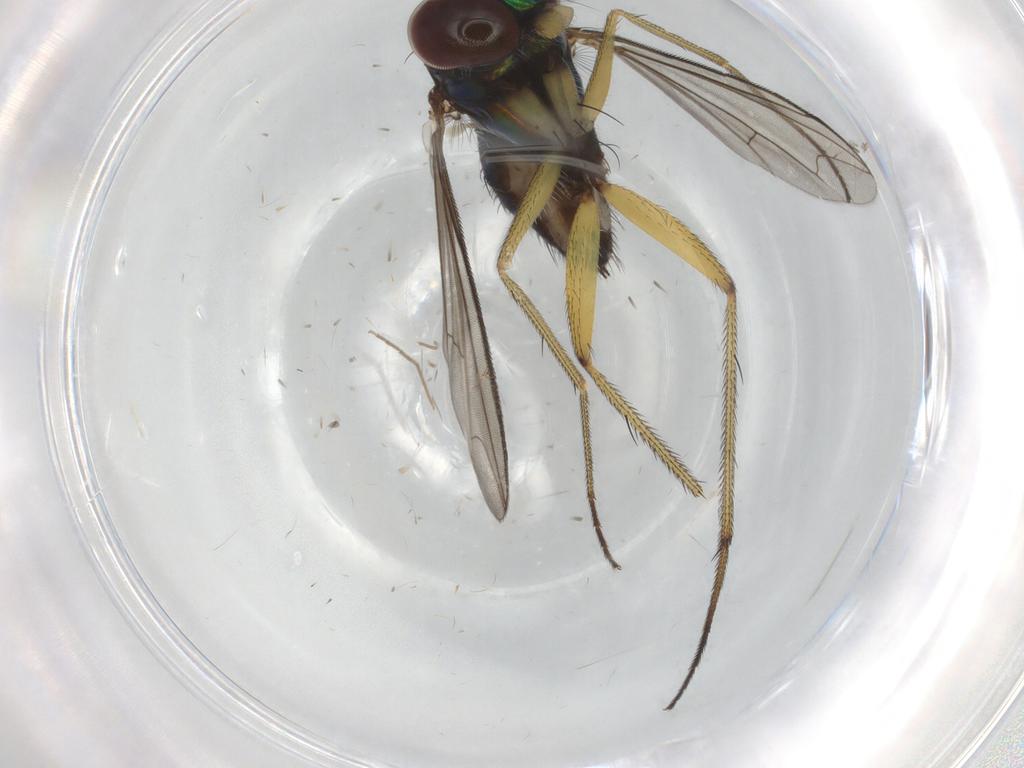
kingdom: Animalia
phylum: Arthropoda
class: Insecta
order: Diptera
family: Dolichopodidae
